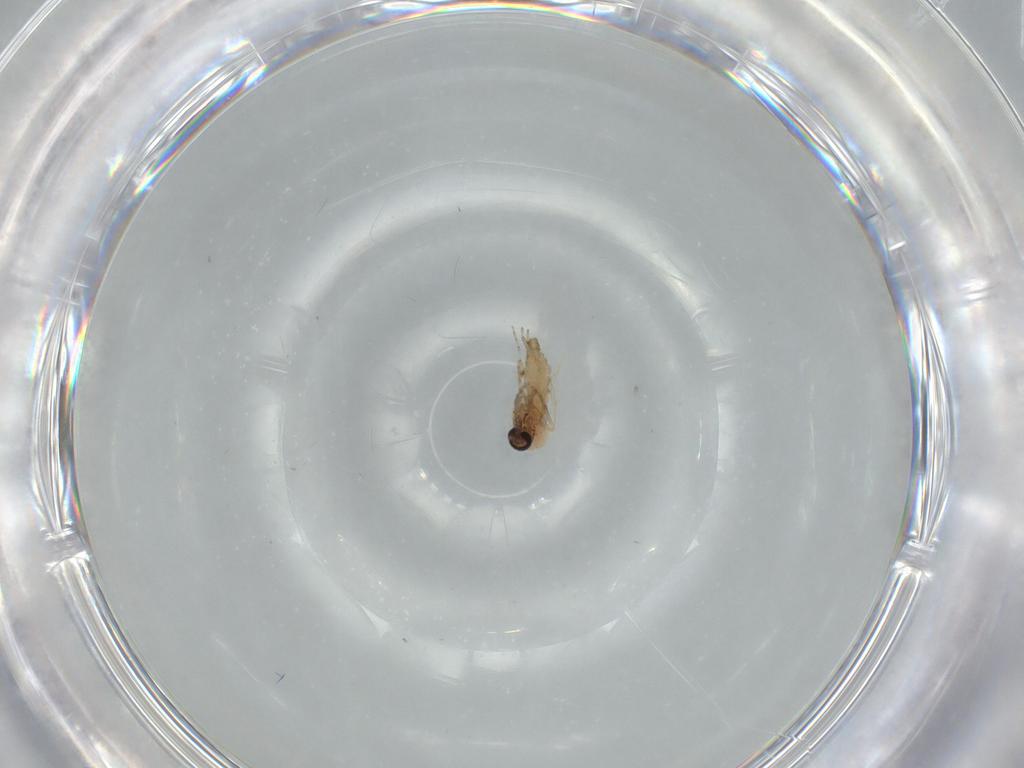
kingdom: Animalia
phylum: Arthropoda
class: Insecta
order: Diptera
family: Ceratopogonidae
